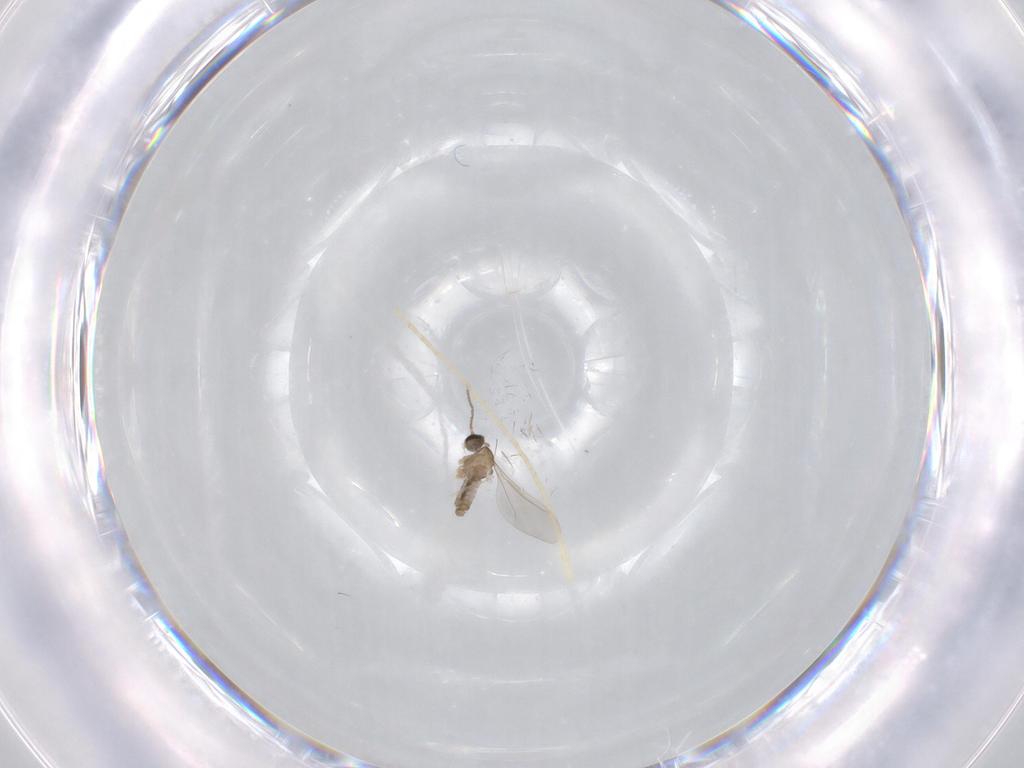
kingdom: Animalia
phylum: Arthropoda
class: Insecta
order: Diptera
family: Cecidomyiidae
